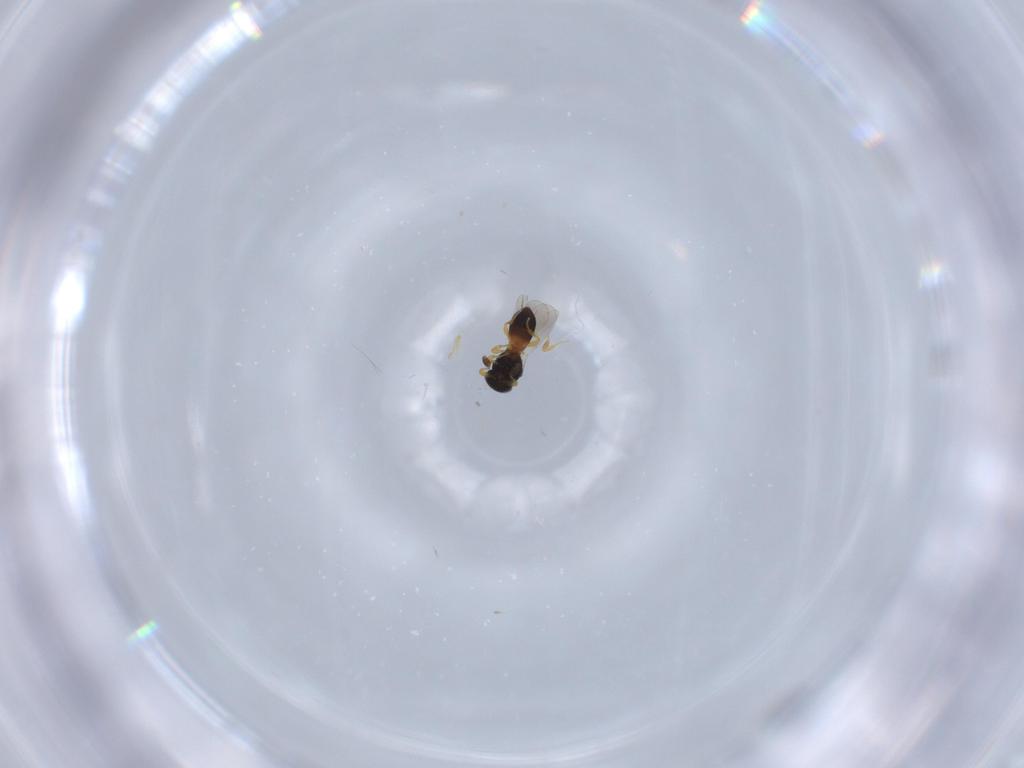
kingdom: Animalia
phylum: Arthropoda
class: Insecta
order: Hymenoptera
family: Platygastridae
